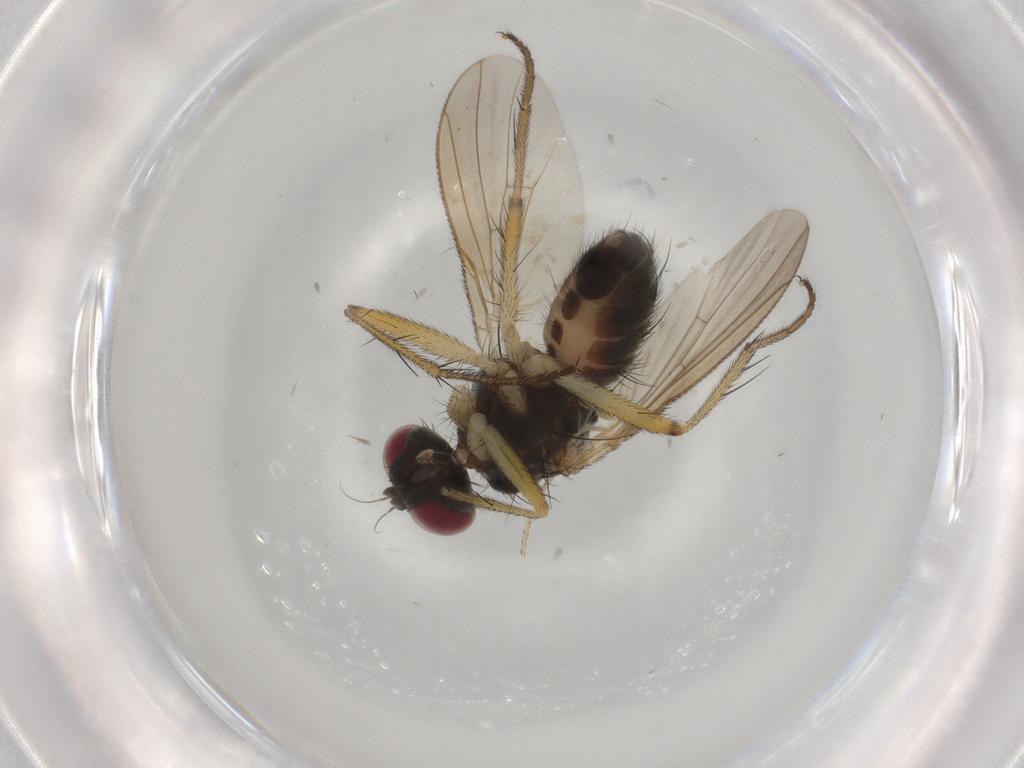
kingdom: Animalia
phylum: Arthropoda
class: Insecta
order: Diptera
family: Muscidae
